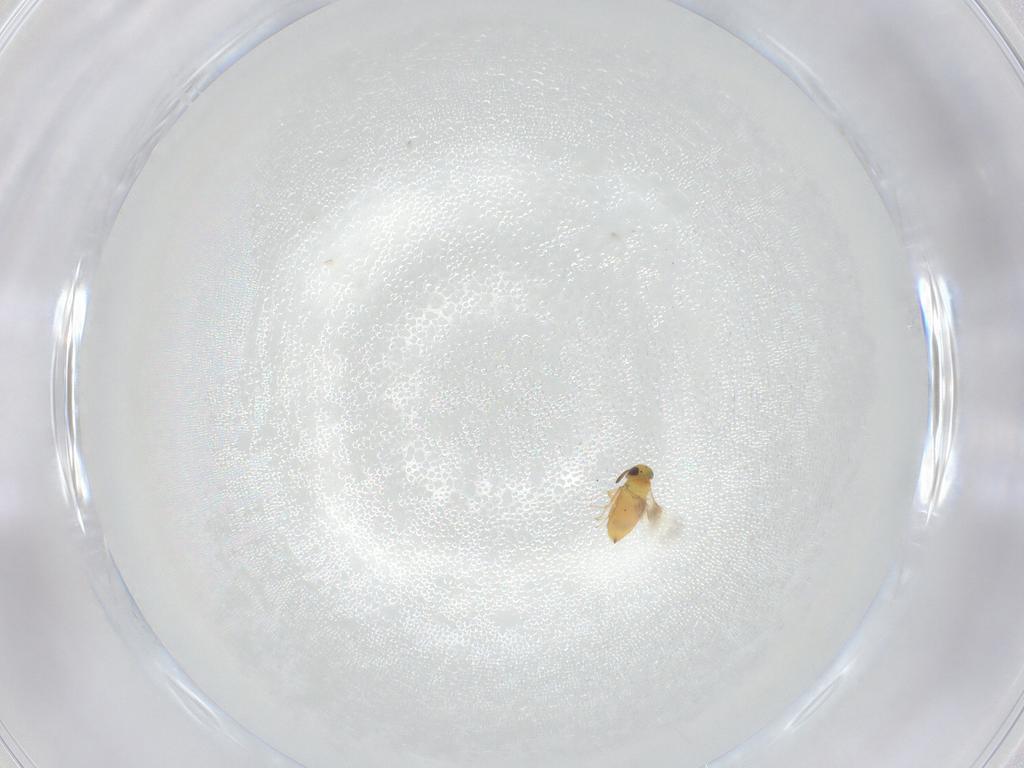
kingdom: Animalia
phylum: Arthropoda
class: Insecta
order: Hymenoptera
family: Signiphoridae
